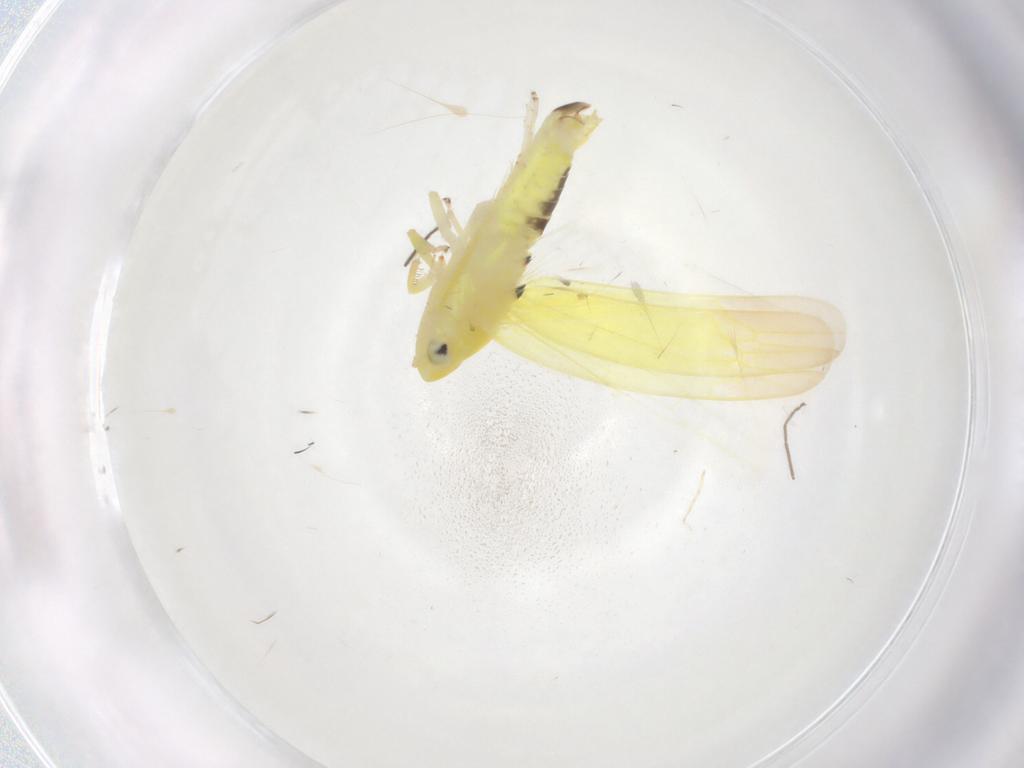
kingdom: Animalia
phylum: Arthropoda
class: Insecta
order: Hemiptera
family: Cicadellidae
